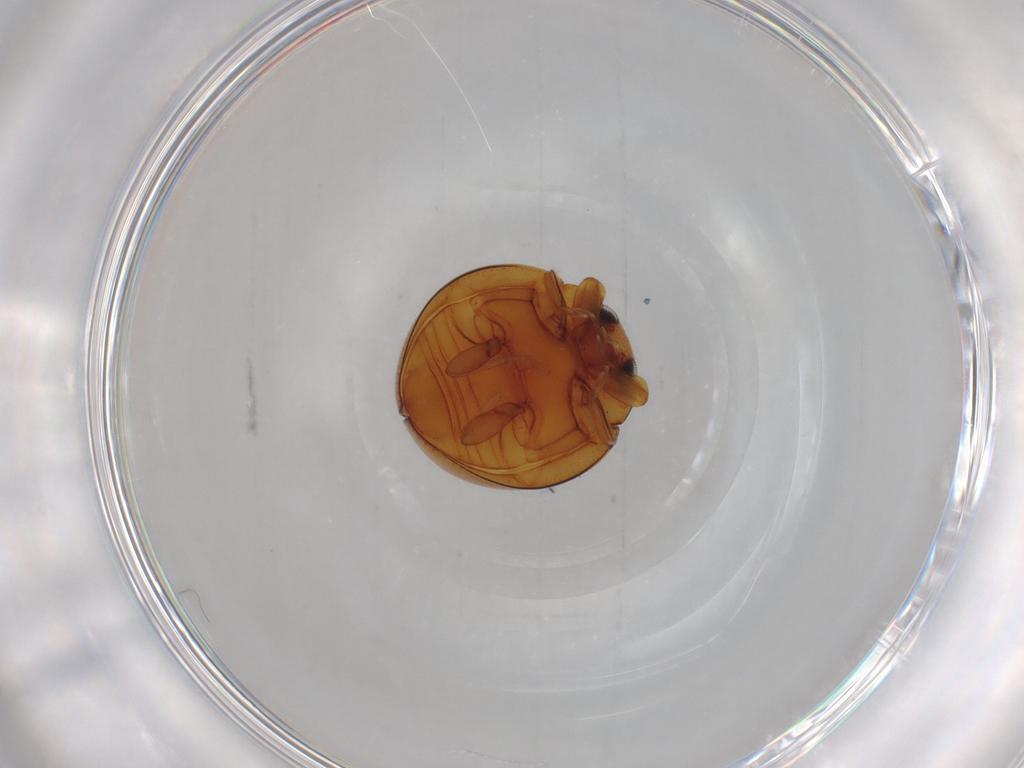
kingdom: Animalia
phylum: Arthropoda
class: Insecta
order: Coleoptera
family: Coccinellidae
